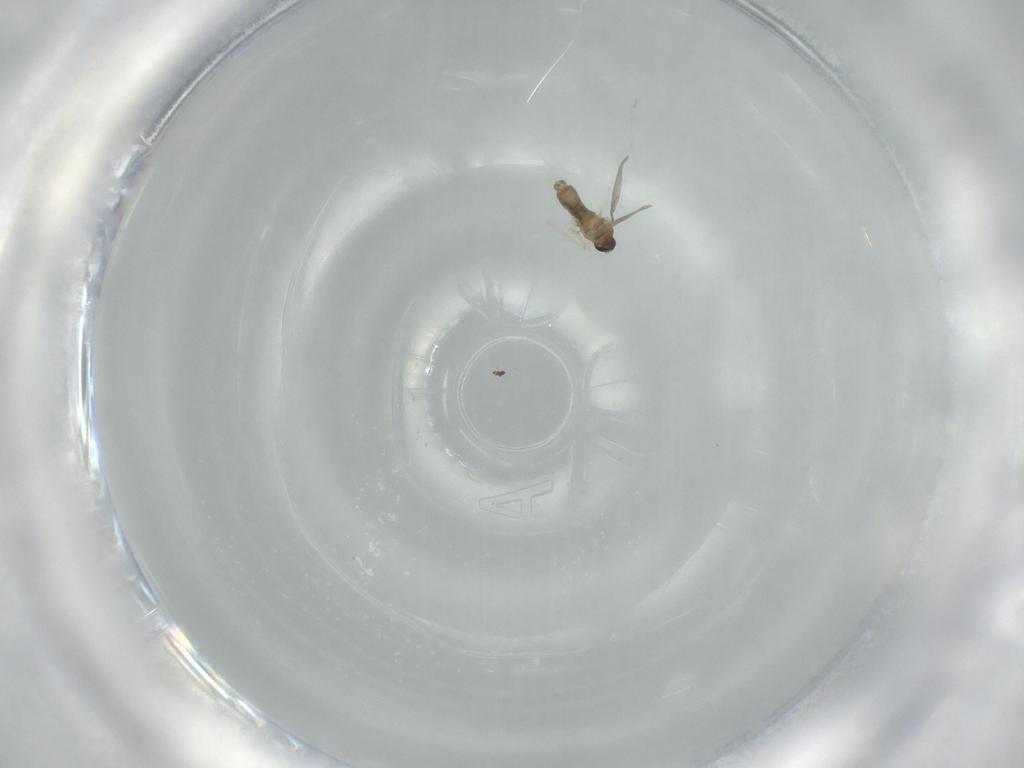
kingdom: Animalia
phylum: Arthropoda
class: Insecta
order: Diptera
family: Cecidomyiidae
